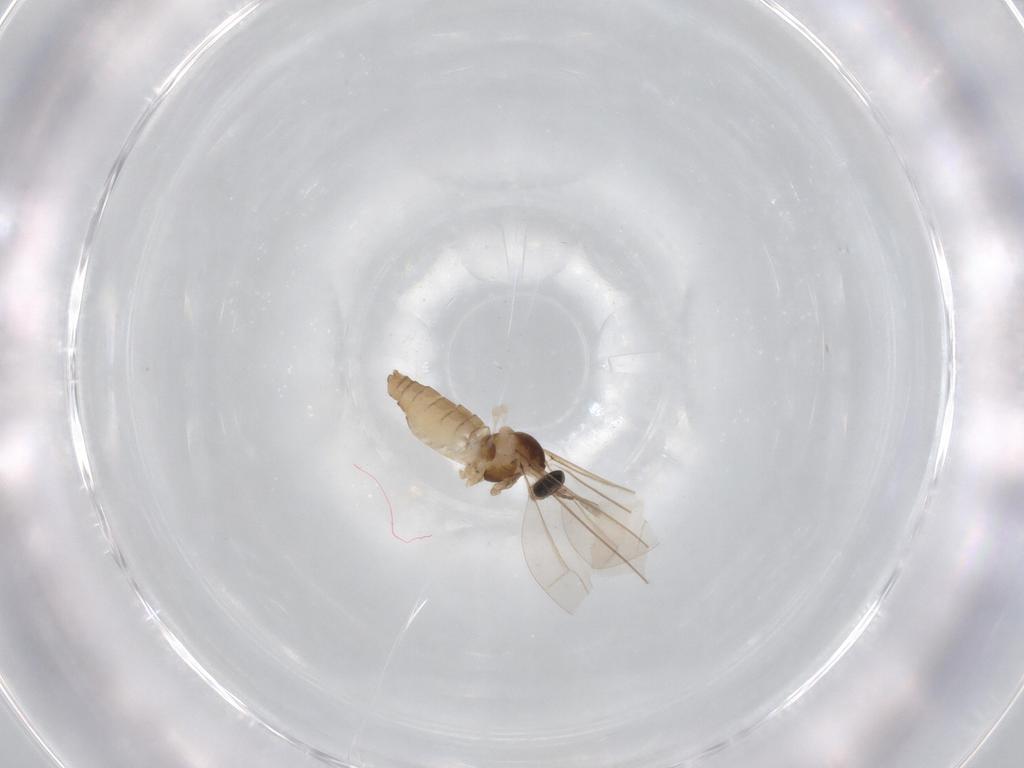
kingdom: Animalia
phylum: Arthropoda
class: Insecta
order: Diptera
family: Cecidomyiidae
